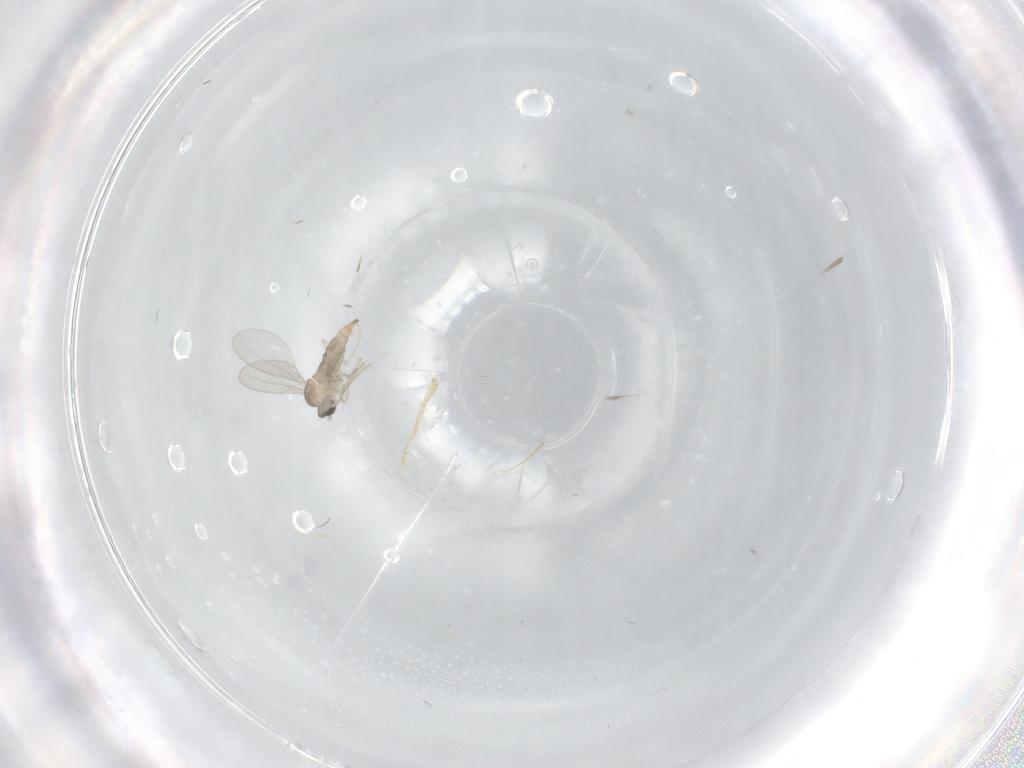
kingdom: Animalia
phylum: Arthropoda
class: Insecta
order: Diptera
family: Cecidomyiidae
